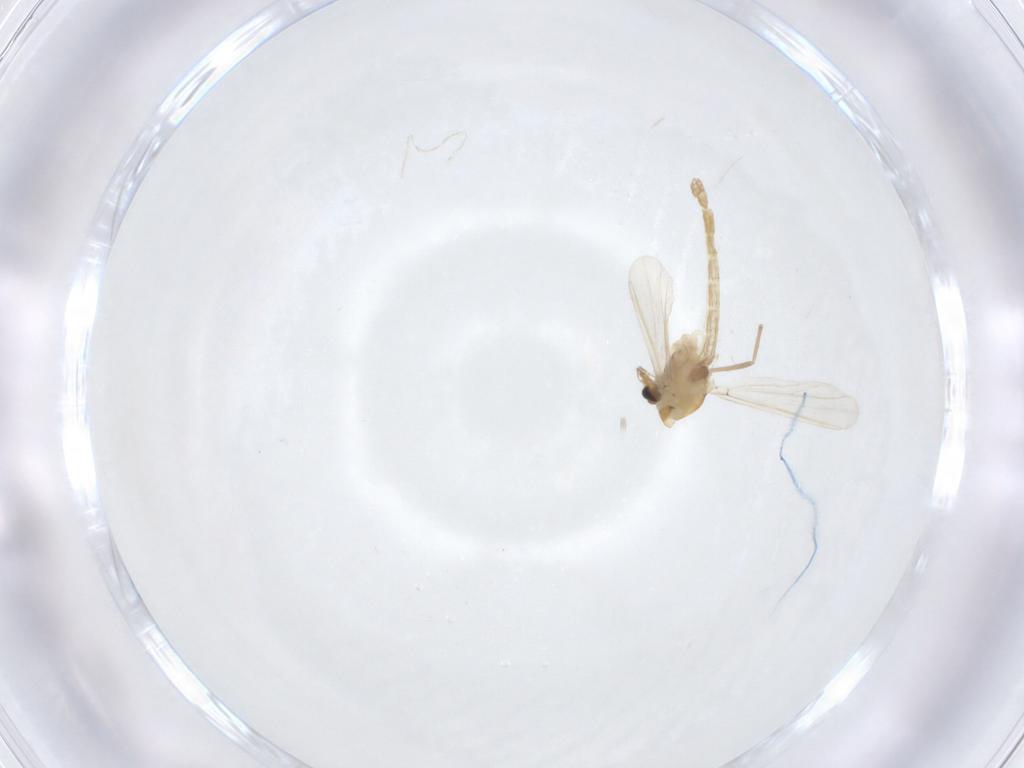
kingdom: Animalia
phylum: Arthropoda
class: Insecta
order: Diptera
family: Chironomidae
